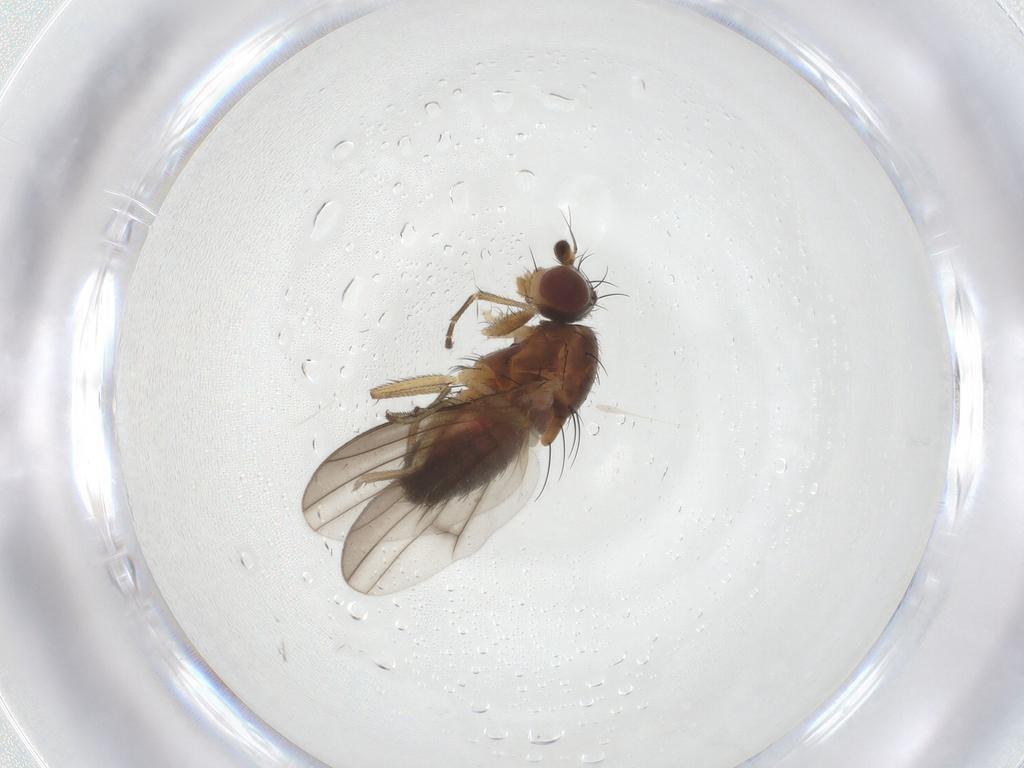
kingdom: Animalia
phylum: Arthropoda
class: Insecta
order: Diptera
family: Heleomyzidae
